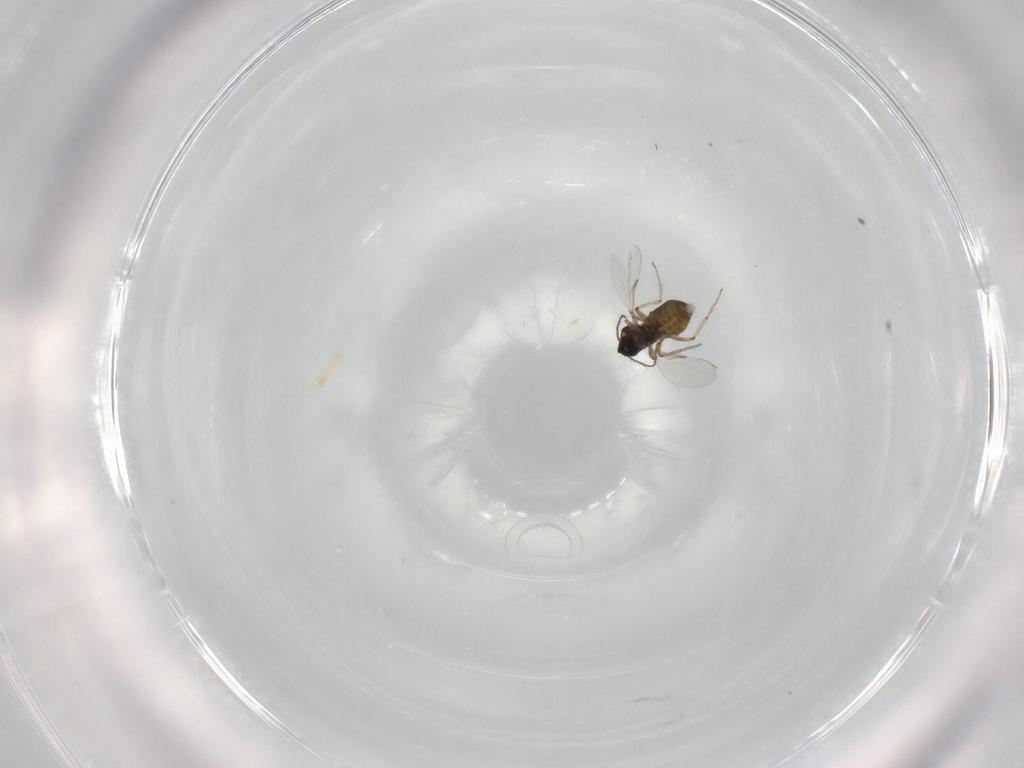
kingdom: Animalia
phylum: Arthropoda
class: Insecta
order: Diptera
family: Ceratopogonidae
